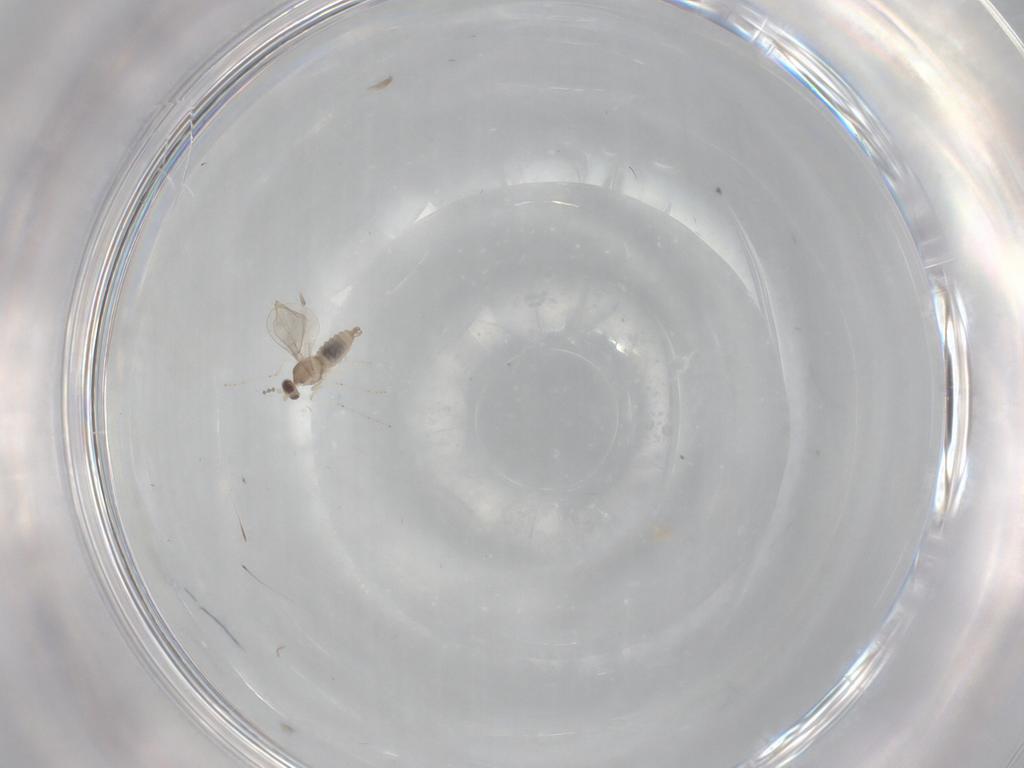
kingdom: Animalia
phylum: Arthropoda
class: Insecta
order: Diptera
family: Cecidomyiidae
